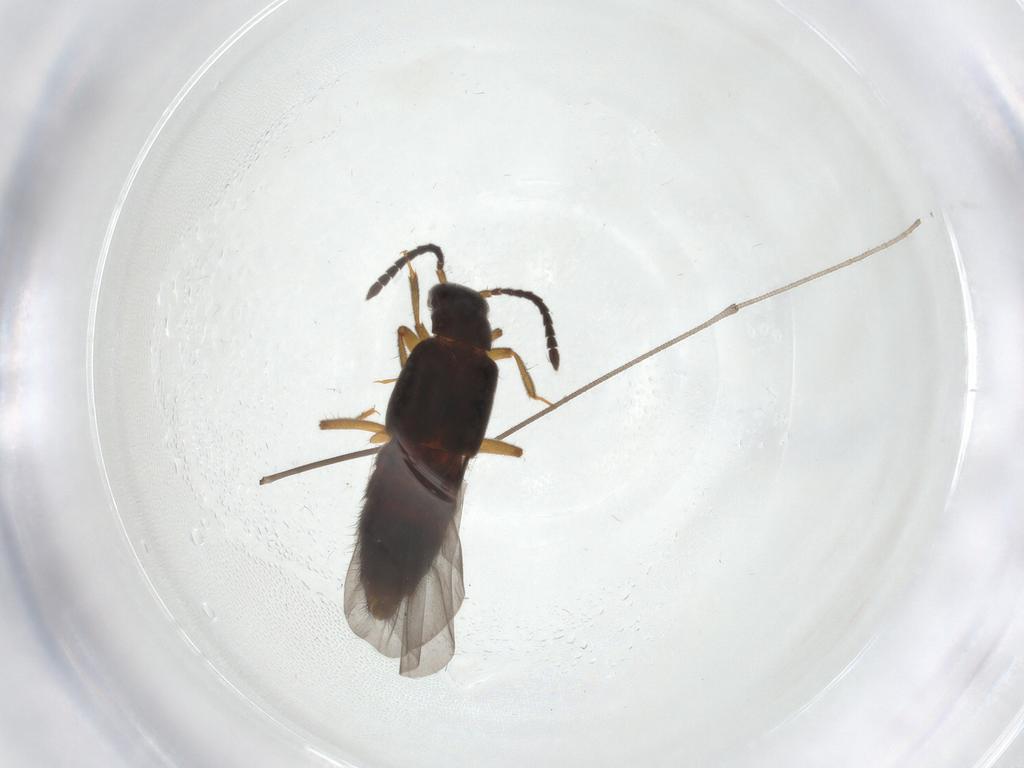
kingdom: Animalia
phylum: Arthropoda
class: Insecta
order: Coleoptera
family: Staphylinidae
